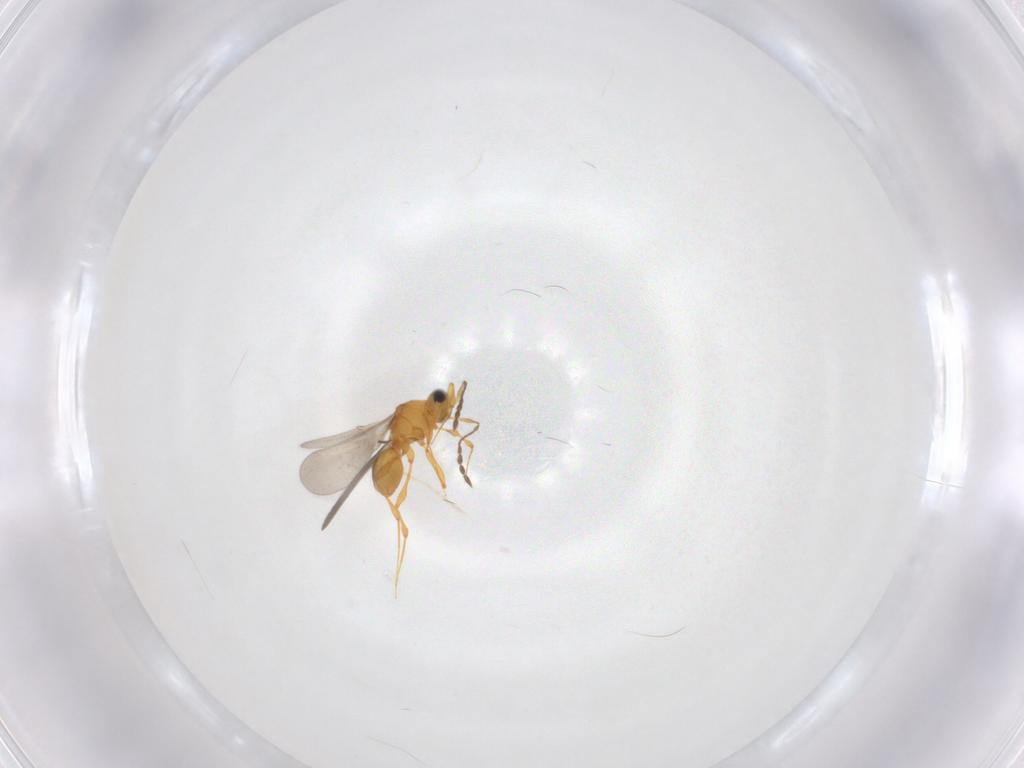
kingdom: Animalia
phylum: Arthropoda
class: Insecta
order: Hymenoptera
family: Platygastridae
